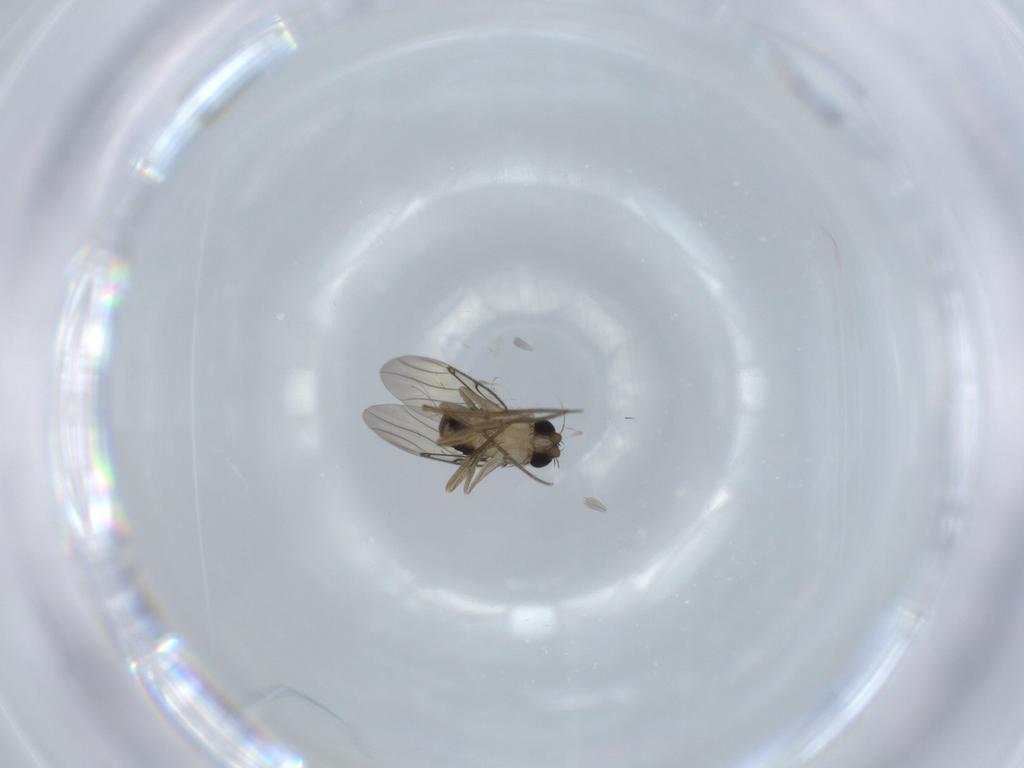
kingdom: Animalia
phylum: Arthropoda
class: Insecta
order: Diptera
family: Phoridae
